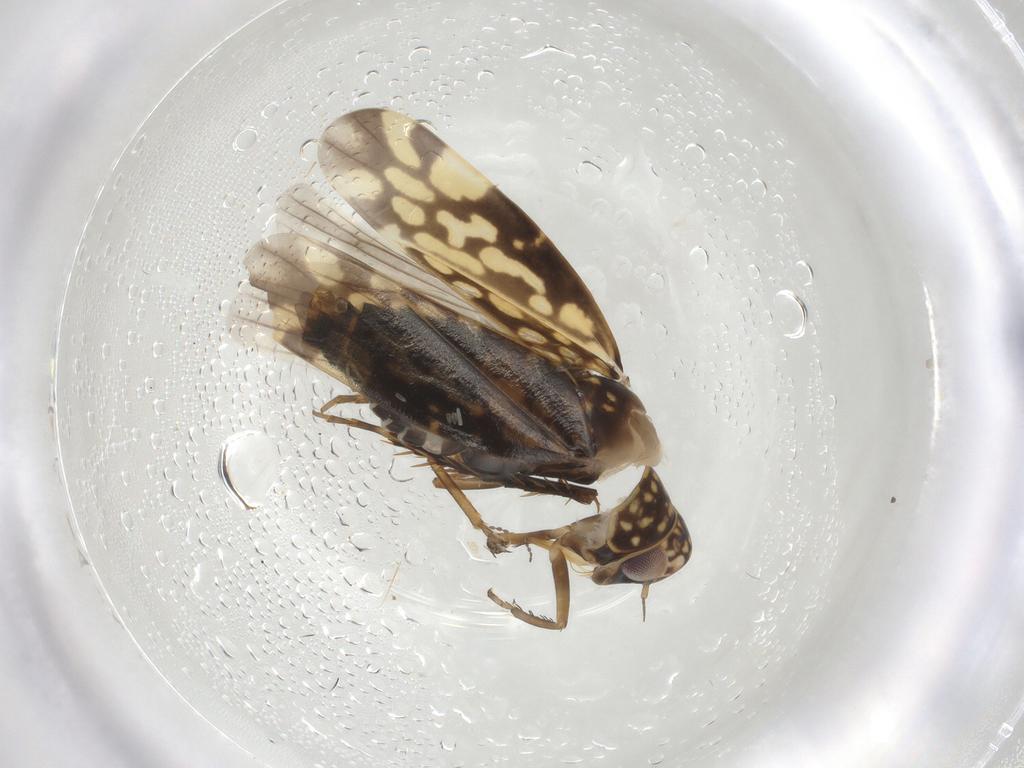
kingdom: Animalia
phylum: Arthropoda
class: Insecta
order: Hemiptera
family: Cicadellidae
